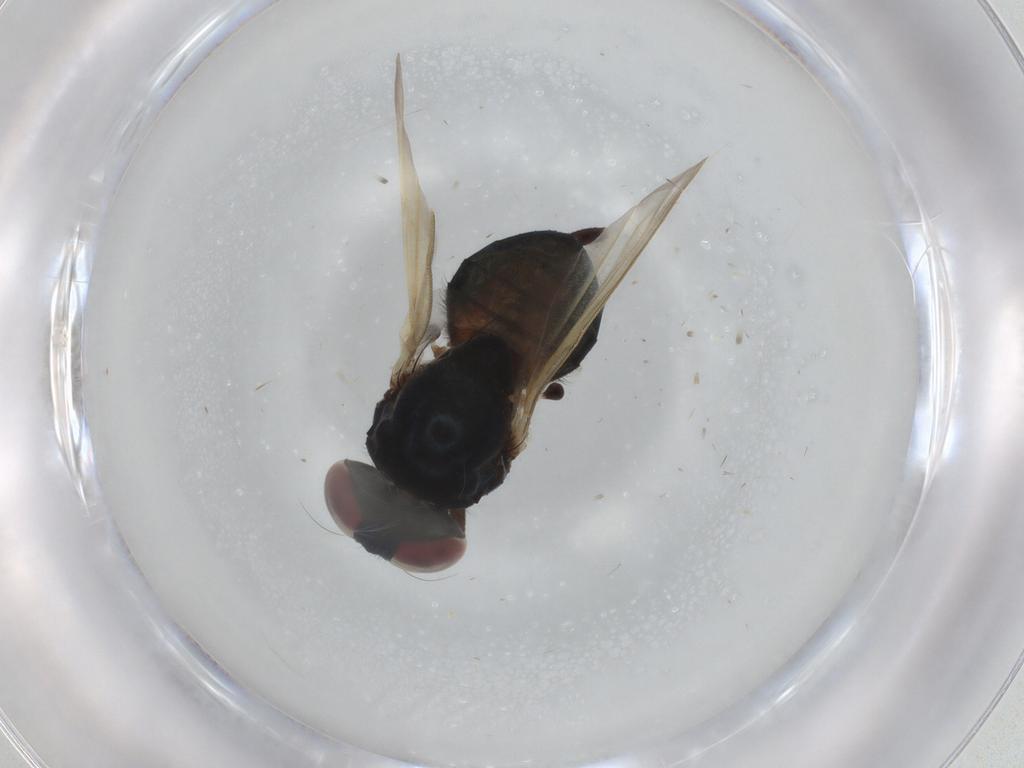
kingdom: Animalia
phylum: Arthropoda
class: Insecta
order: Diptera
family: Lonchaeidae
